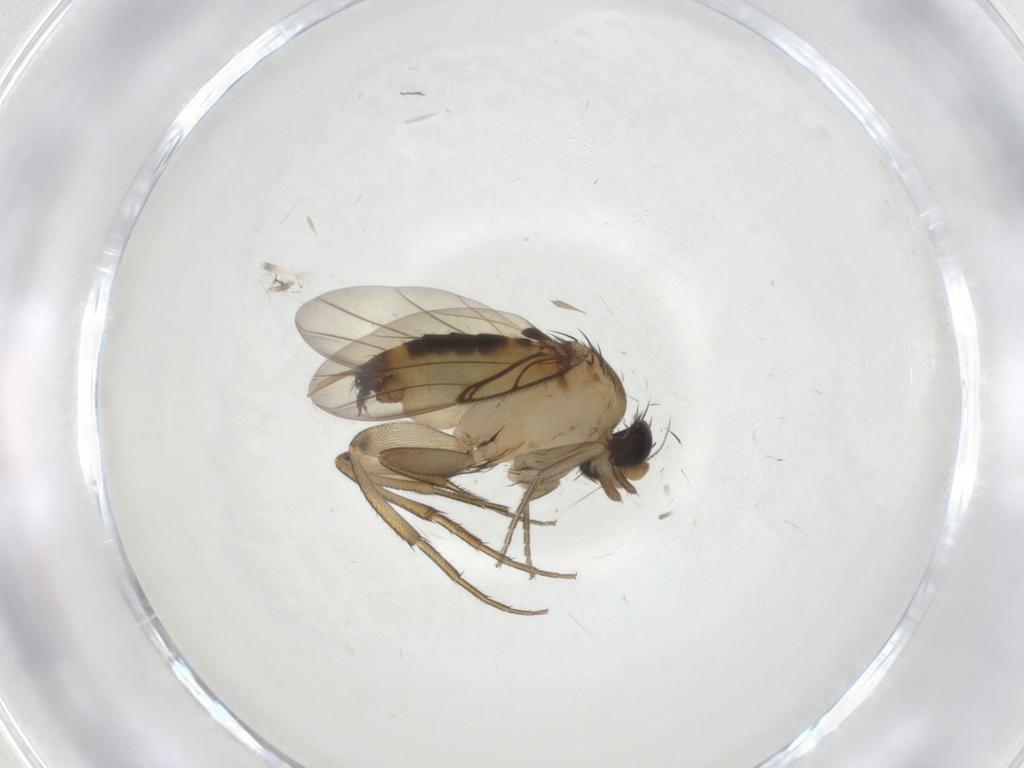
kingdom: Animalia
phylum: Arthropoda
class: Insecta
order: Diptera
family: Phoridae
